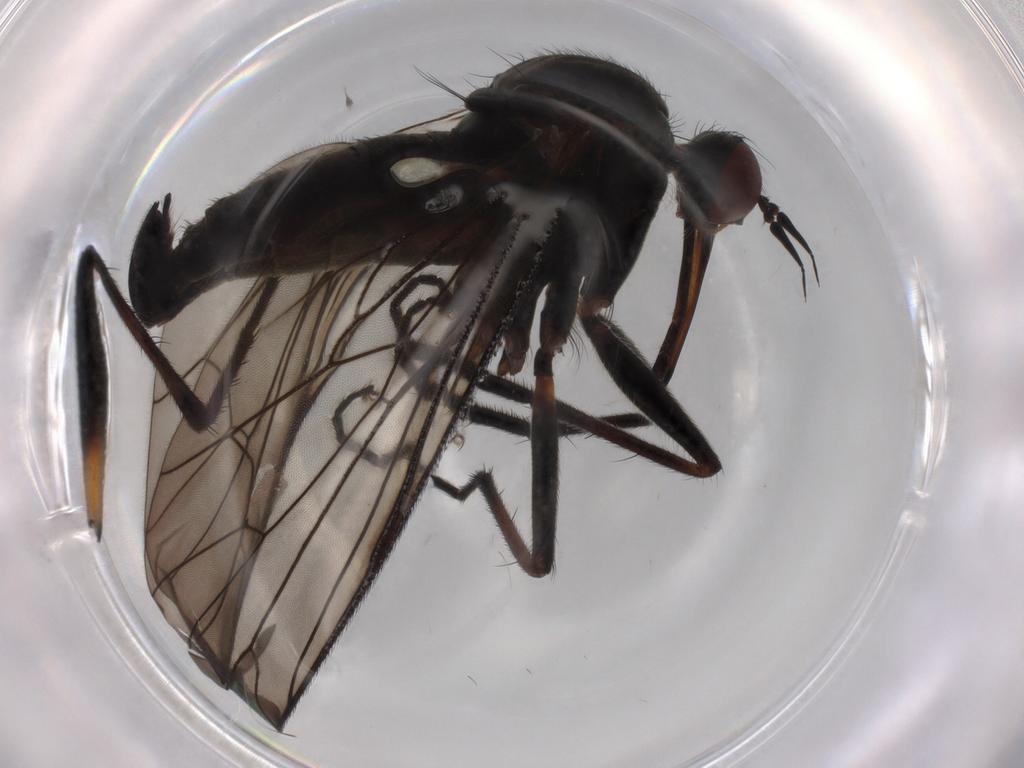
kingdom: Animalia
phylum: Arthropoda
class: Insecta
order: Diptera
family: Empididae
